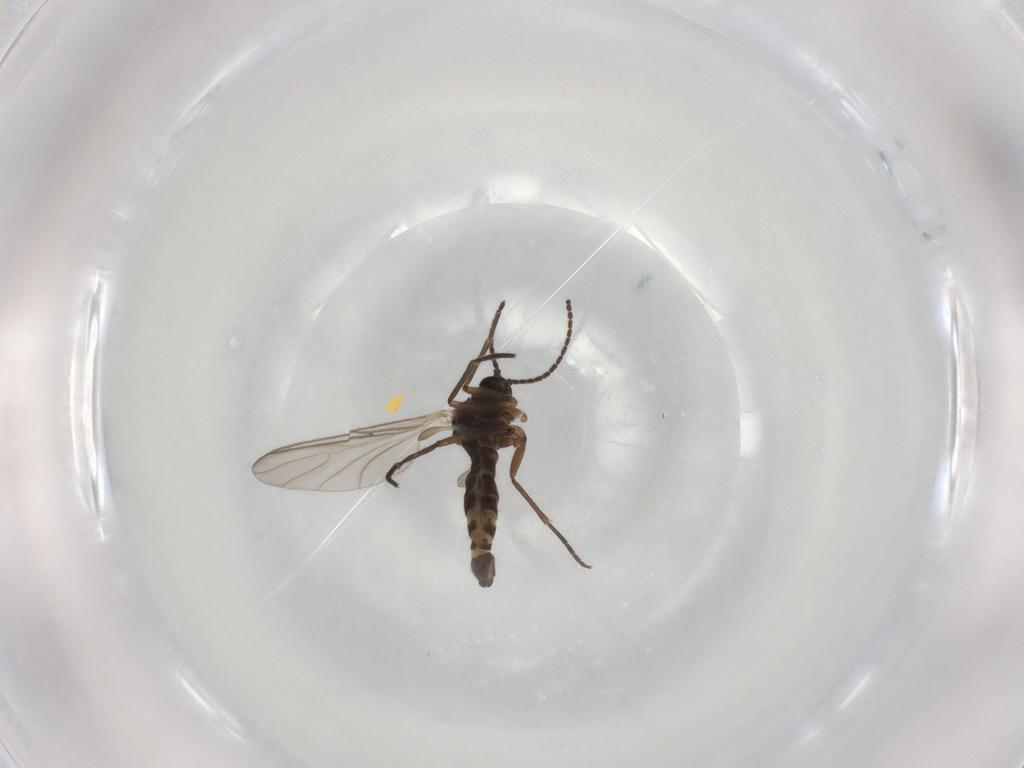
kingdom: Animalia
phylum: Arthropoda
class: Insecta
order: Diptera
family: Sciaridae
